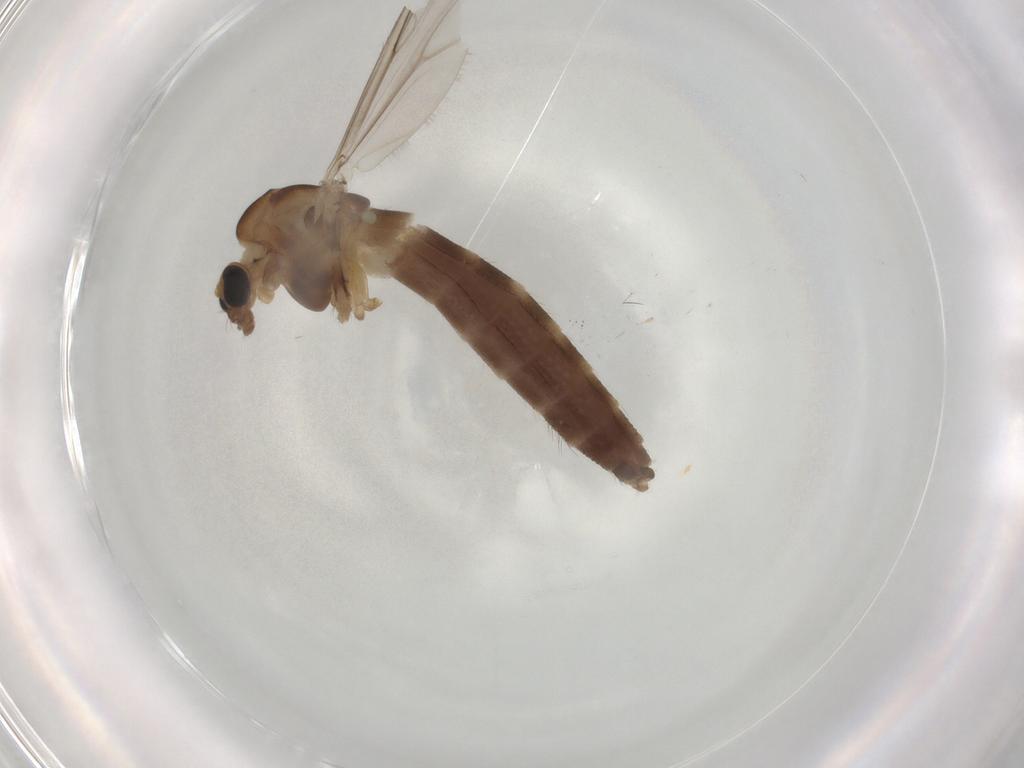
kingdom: Animalia
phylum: Arthropoda
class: Insecta
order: Diptera
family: Chironomidae
